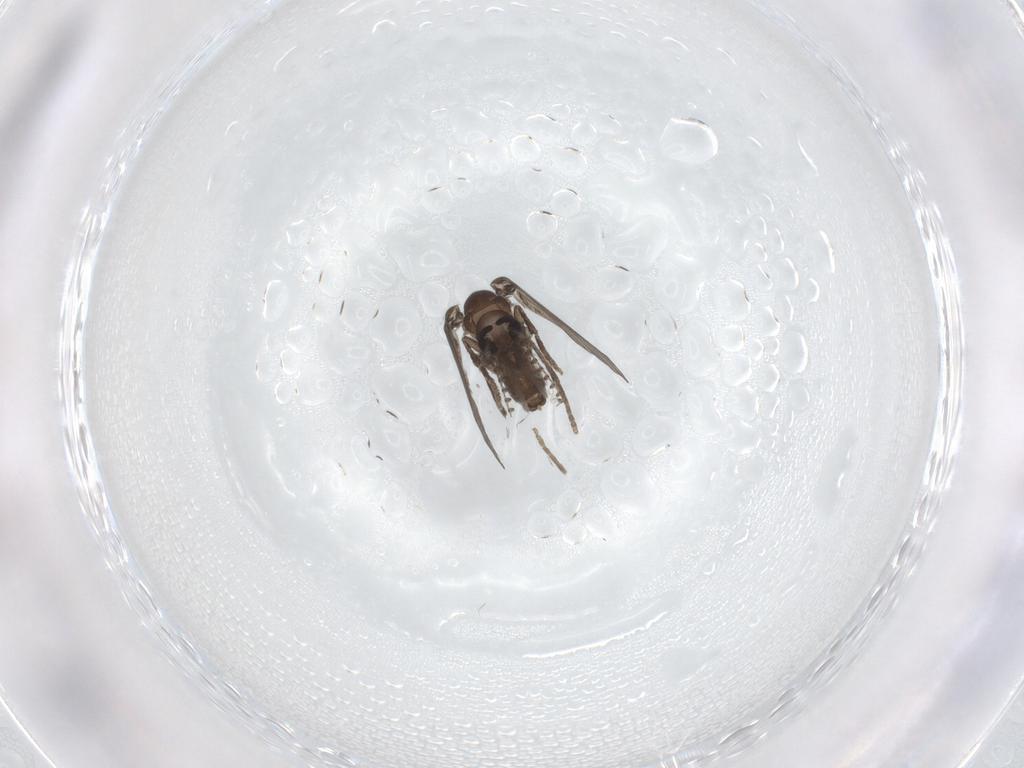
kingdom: Animalia
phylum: Arthropoda
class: Insecta
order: Diptera
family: Psychodidae
